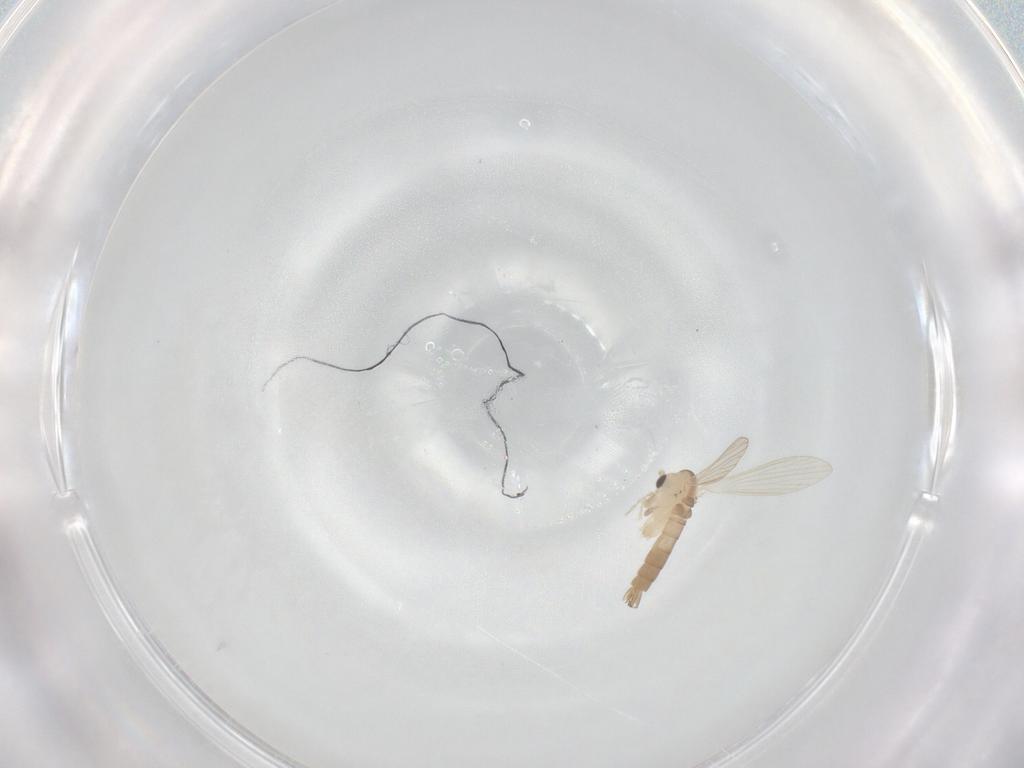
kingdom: Animalia
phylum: Arthropoda
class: Insecta
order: Diptera
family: Psychodidae
